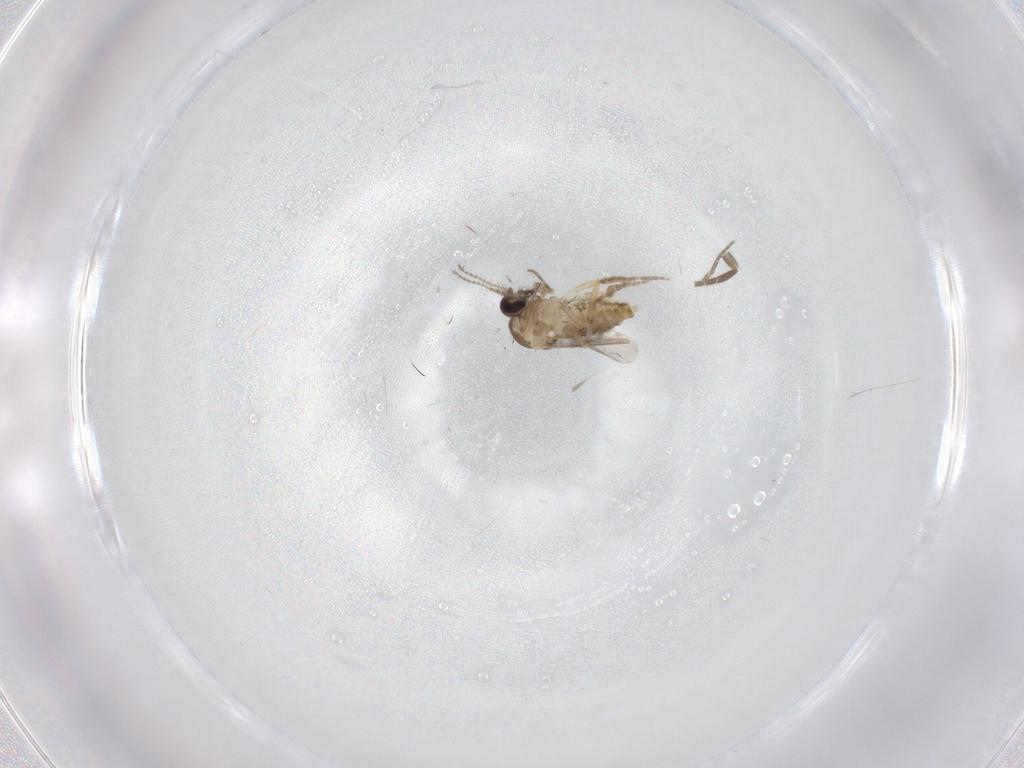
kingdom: Animalia
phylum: Arthropoda
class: Insecta
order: Diptera
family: Ceratopogonidae
